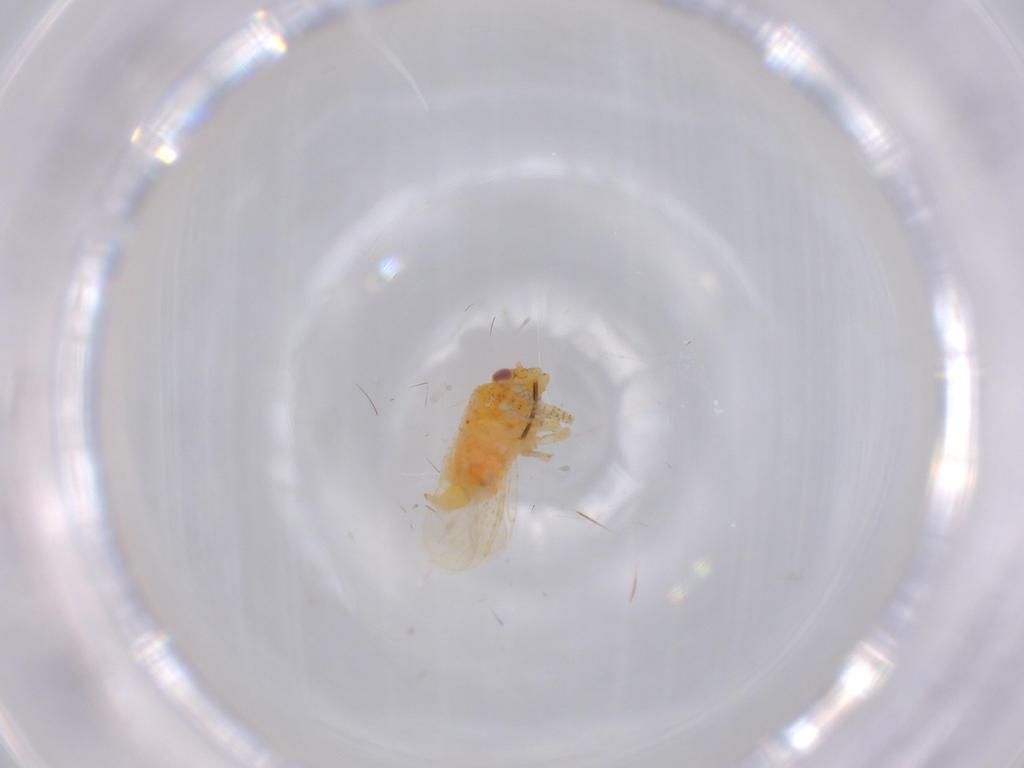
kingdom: Animalia
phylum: Arthropoda
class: Insecta
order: Hemiptera
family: Psyllidae
